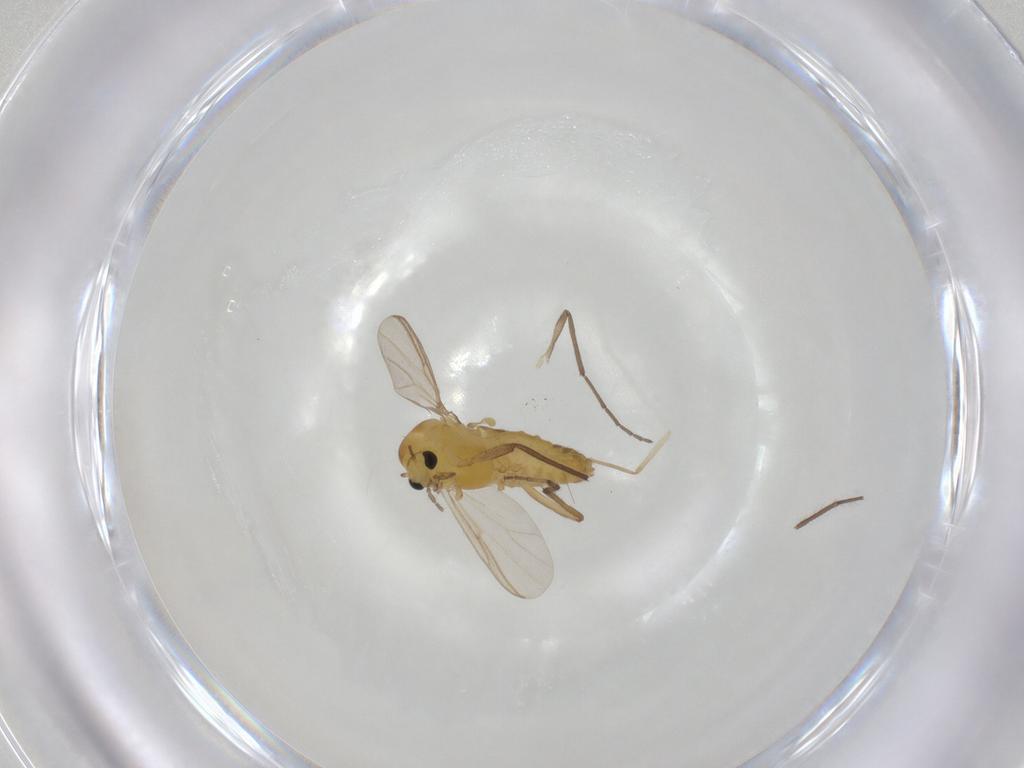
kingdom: Animalia
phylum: Arthropoda
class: Insecta
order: Diptera
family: Chironomidae
